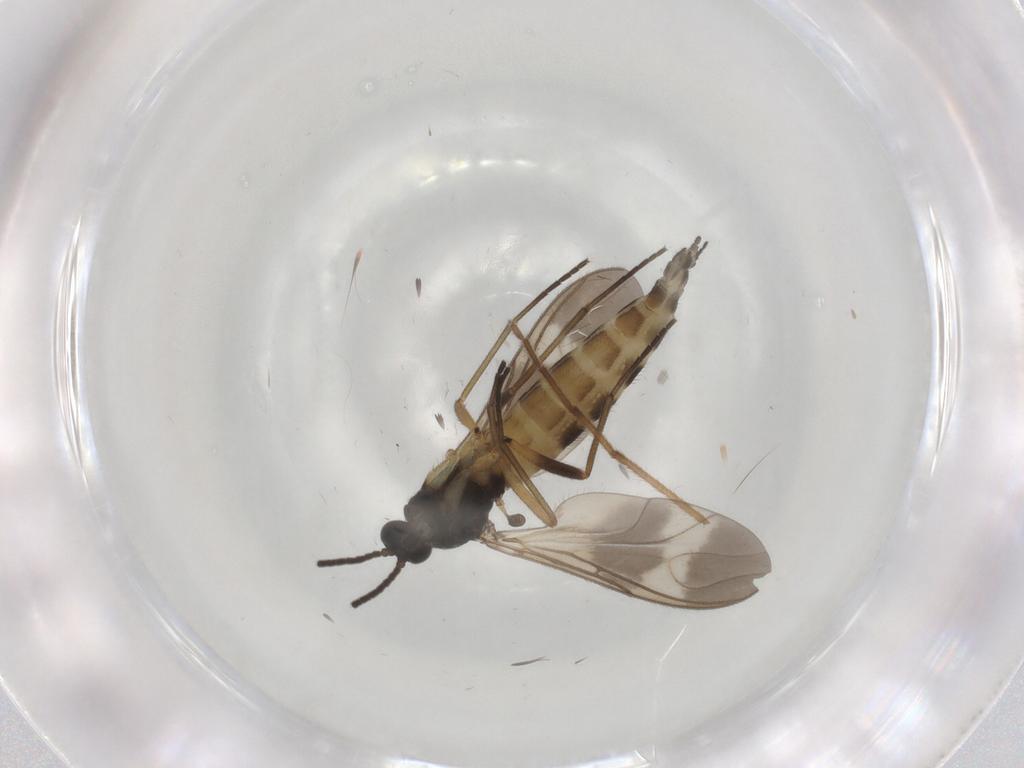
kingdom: Animalia
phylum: Arthropoda
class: Insecta
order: Diptera
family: Sciaridae
